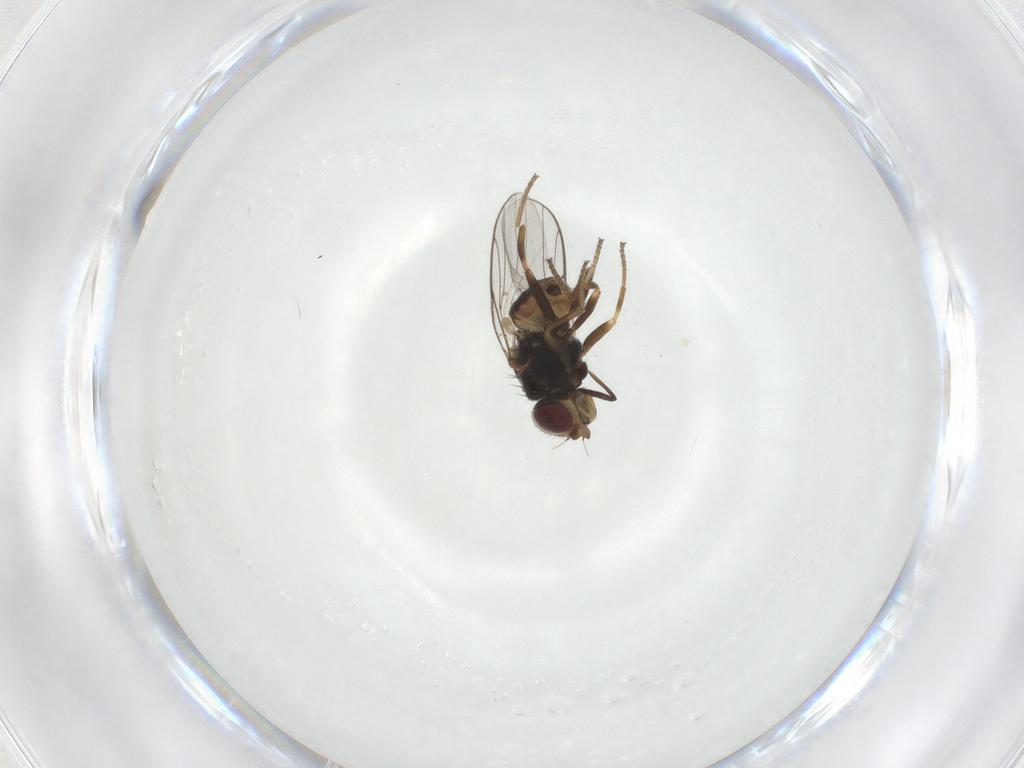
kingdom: Animalia
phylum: Arthropoda
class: Insecta
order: Diptera
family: Chloropidae
